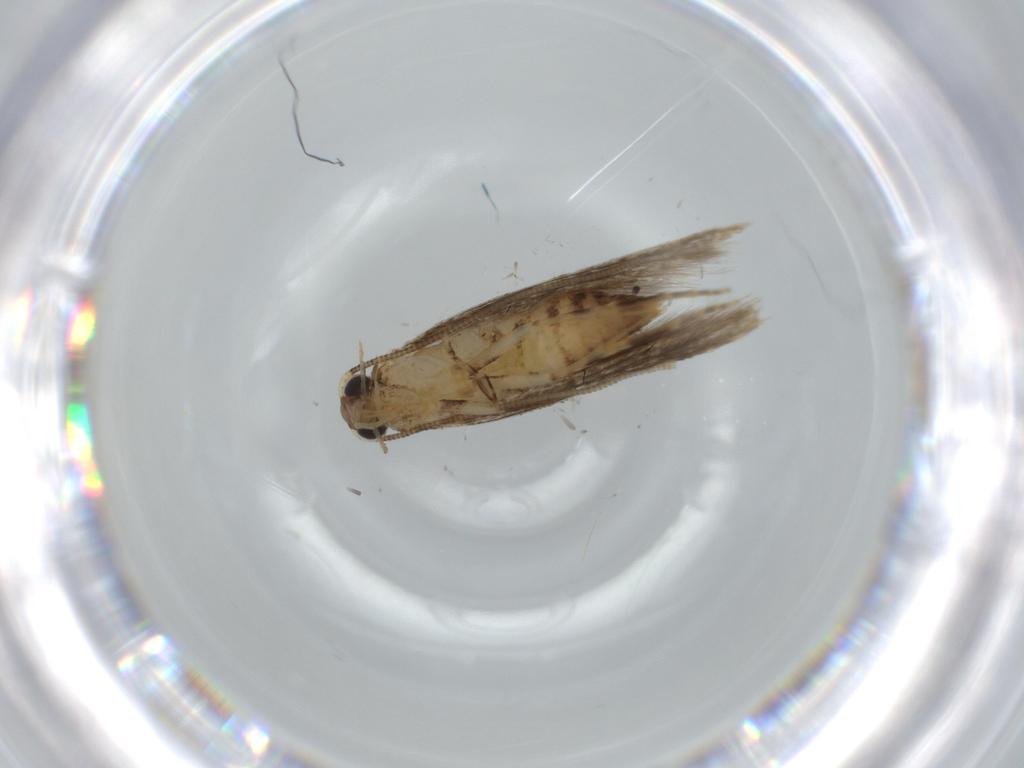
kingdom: Animalia
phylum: Arthropoda
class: Insecta
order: Lepidoptera
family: Tineidae
